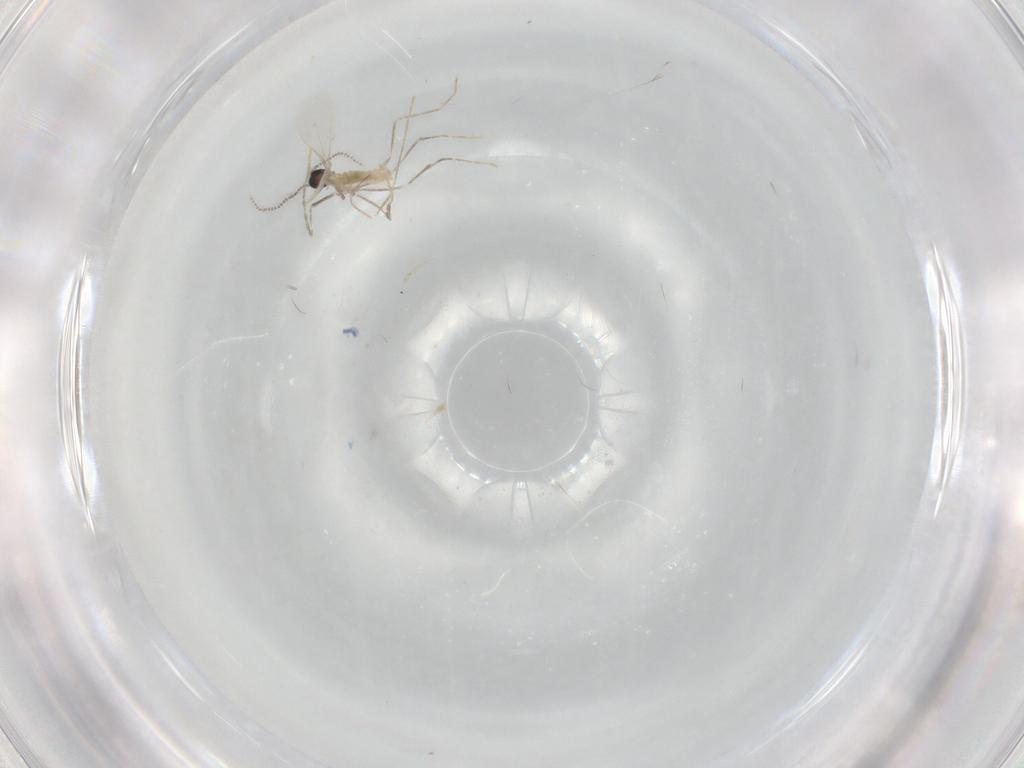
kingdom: Animalia
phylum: Arthropoda
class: Insecta
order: Diptera
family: Cecidomyiidae
